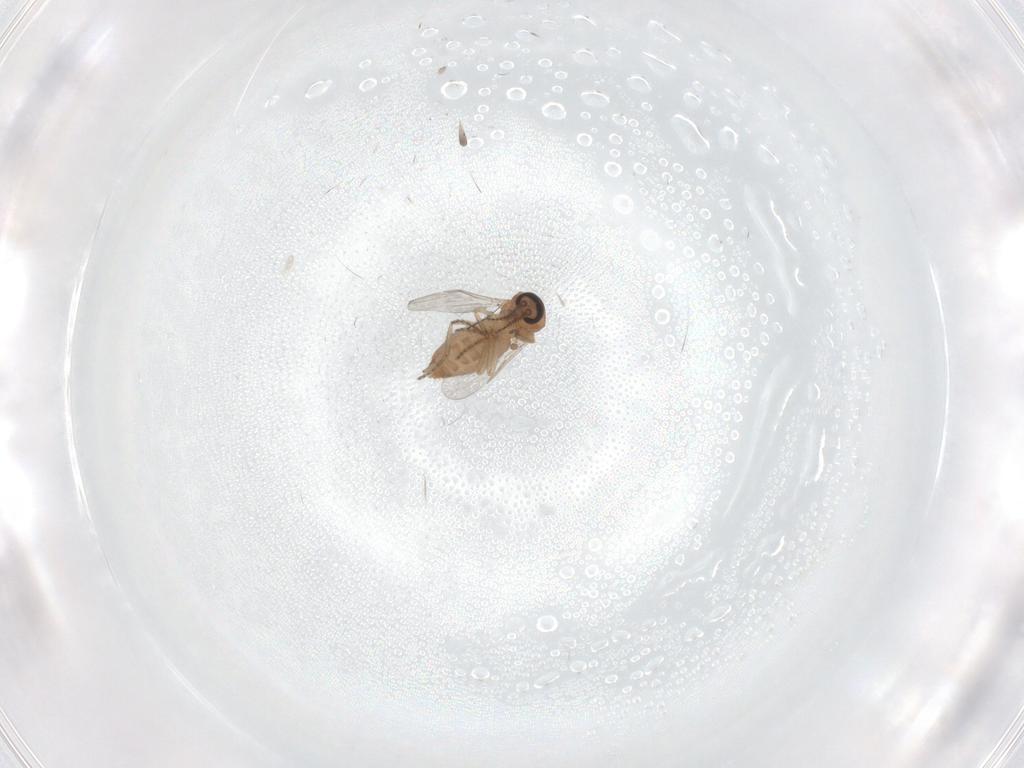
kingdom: Animalia
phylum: Arthropoda
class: Insecta
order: Diptera
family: Ceratopogonidae
